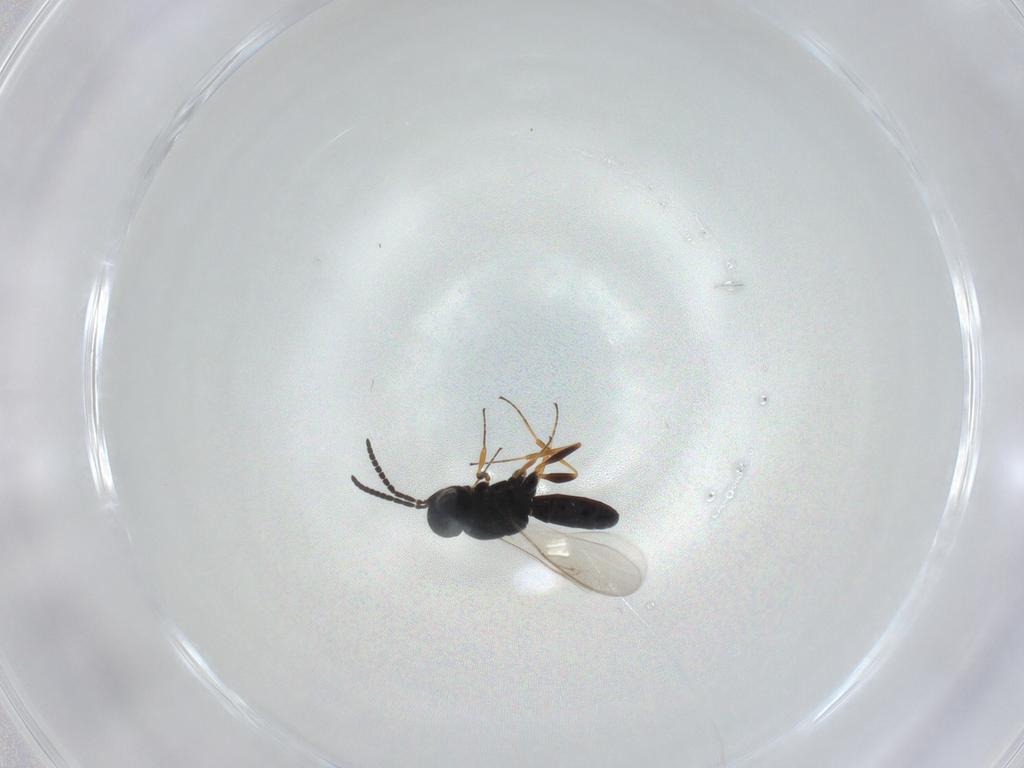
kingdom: Animalia
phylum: Arthropoda
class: Insecta
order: Hymenoptera
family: Scelionidae
